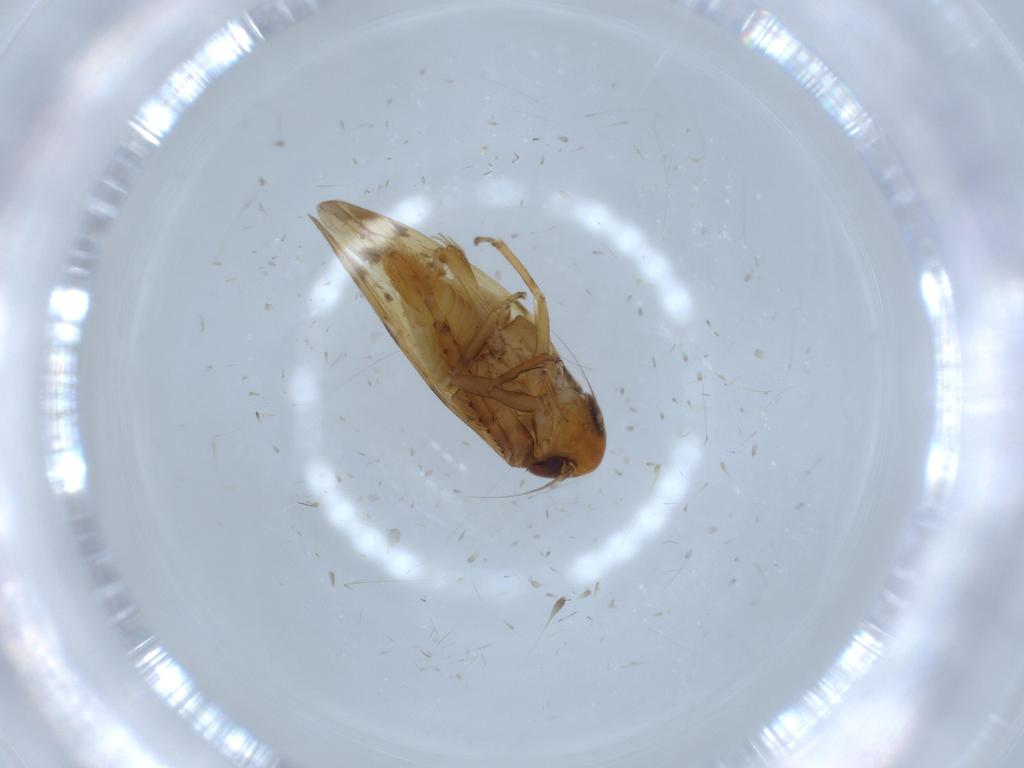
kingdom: Animalia
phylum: Arthropoda
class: Insecta
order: Hemiptera
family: Cicadellidae
